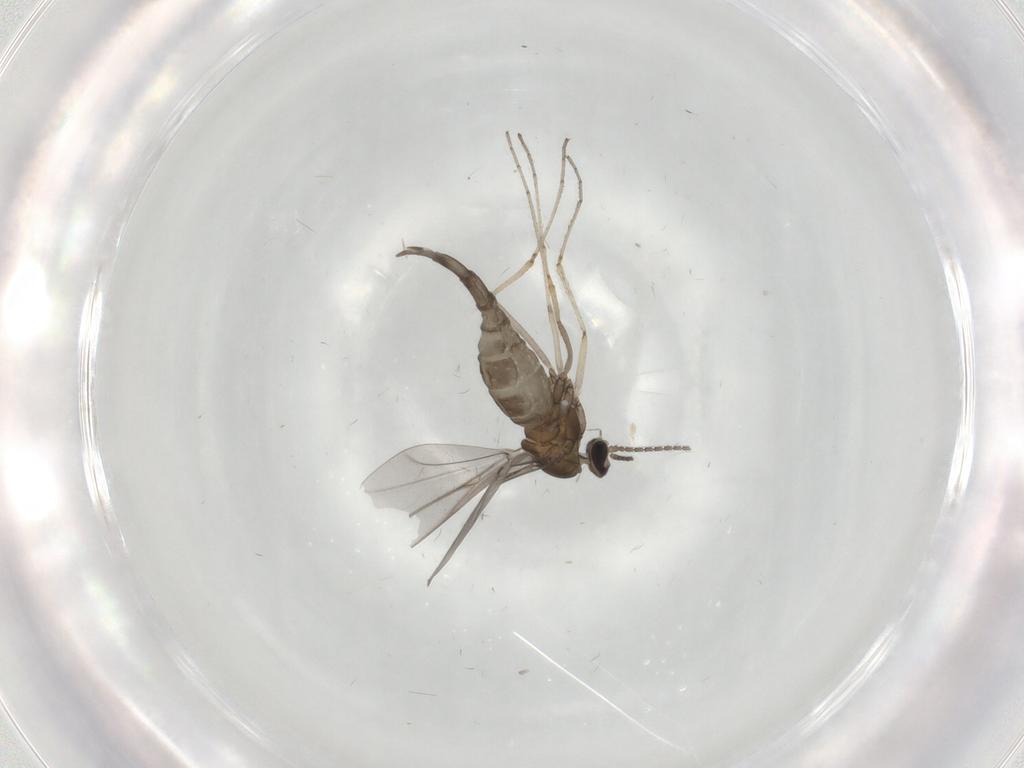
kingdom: Animalia
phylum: Arthropoda
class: Insecta
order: Diptera
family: Cecidomyiidae
